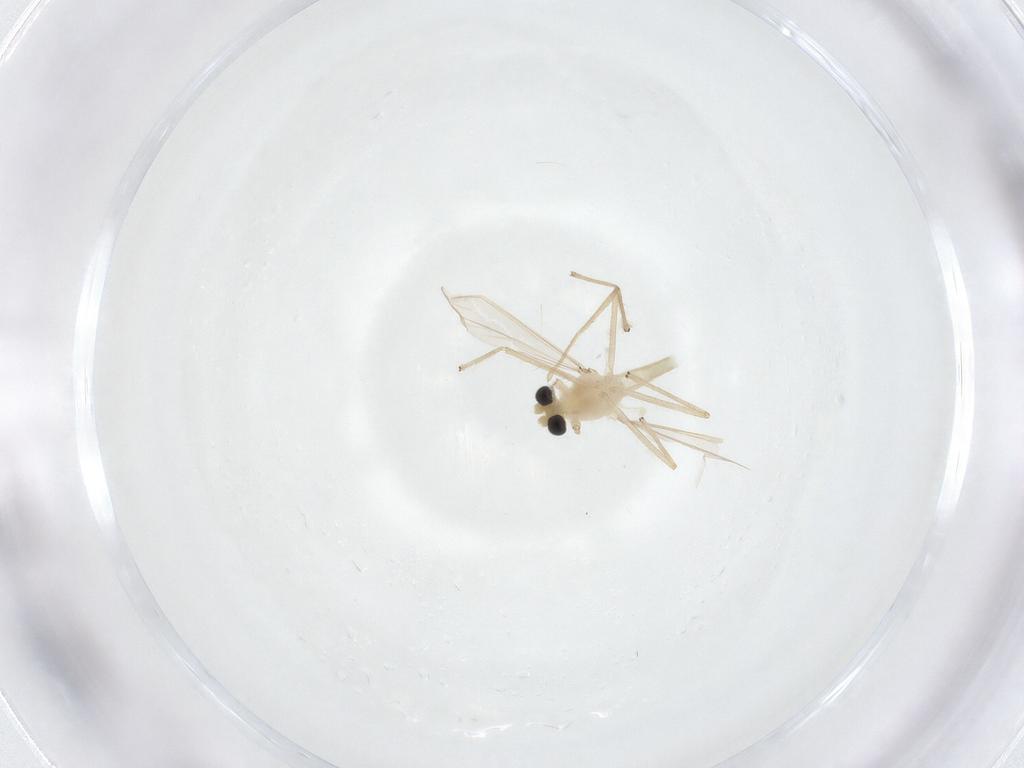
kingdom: Animalia
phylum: Arthropoda
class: Insecta
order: Diptera
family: Chironomidae
